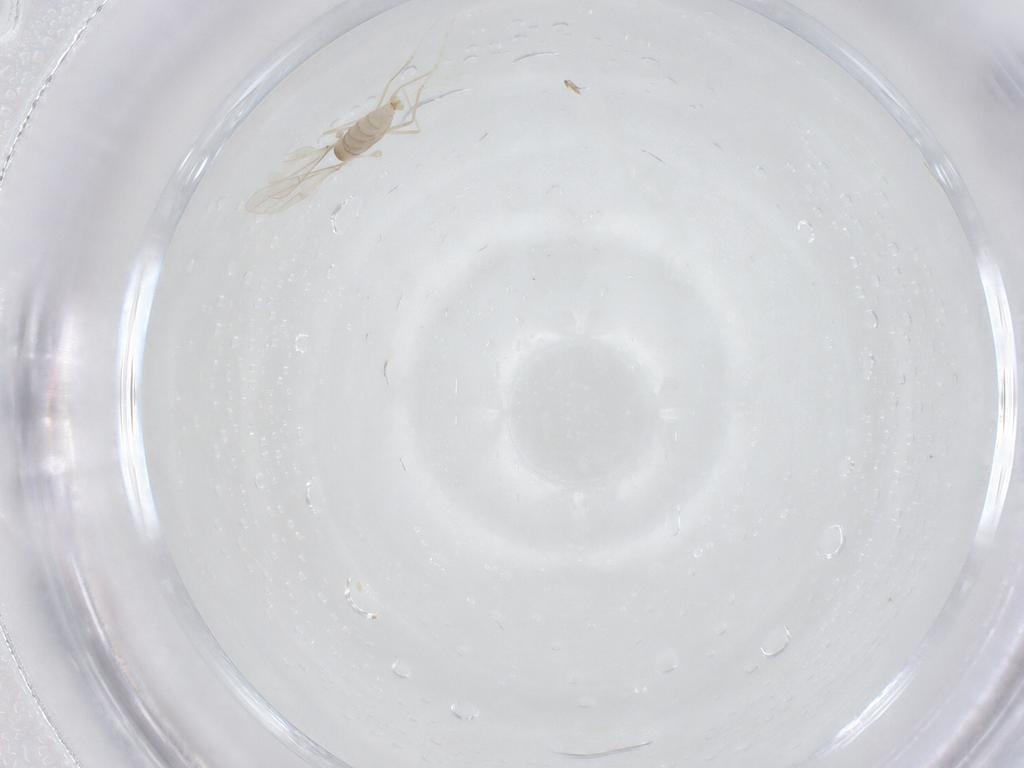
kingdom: Animalia
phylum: Arthropoda
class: Insecta
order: Diptera
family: Cecidomyiidae
